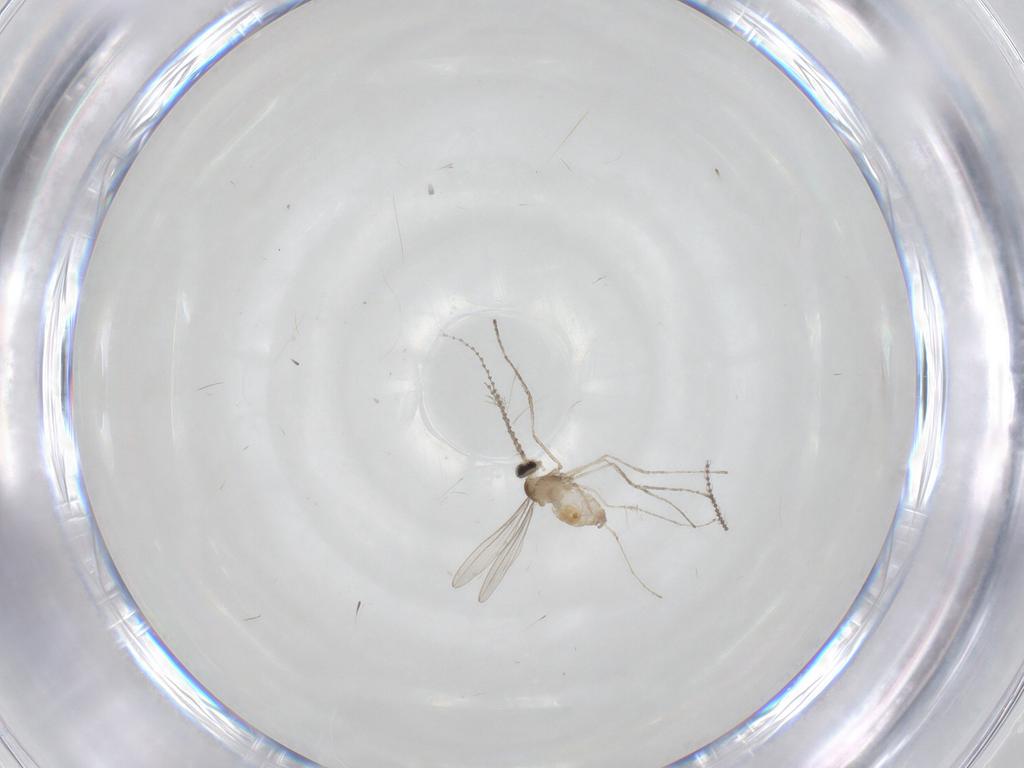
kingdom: Animalia
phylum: Arthropoda
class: Insecta
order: Diptera
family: Cecidomyiidae
